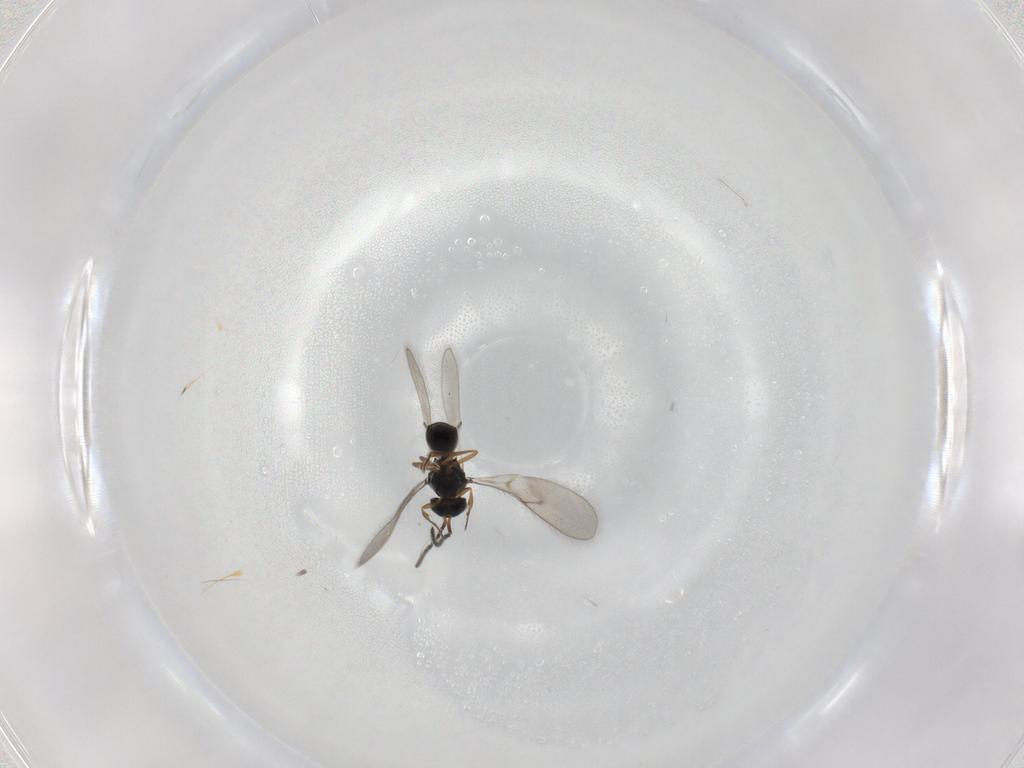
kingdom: Animalia
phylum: Arthropoda
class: Insecta
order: Hymenoptera
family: Scelionidae
